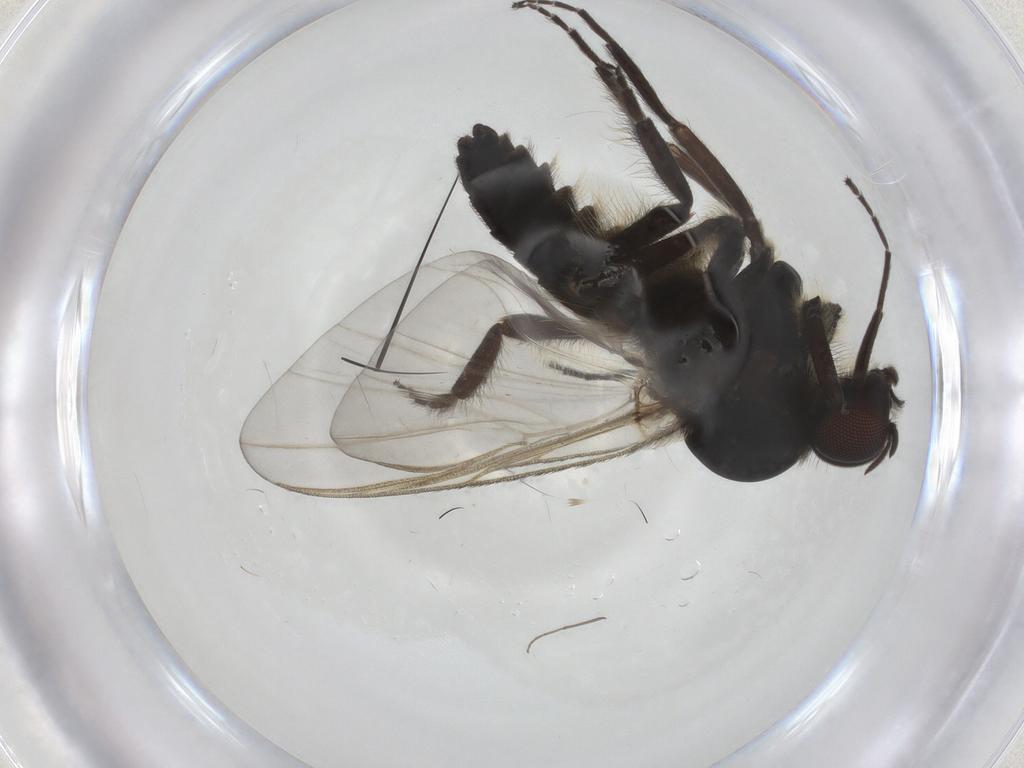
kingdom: Animalia
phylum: Arthropoda
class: Insecta
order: Diptera
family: Simuliidae
